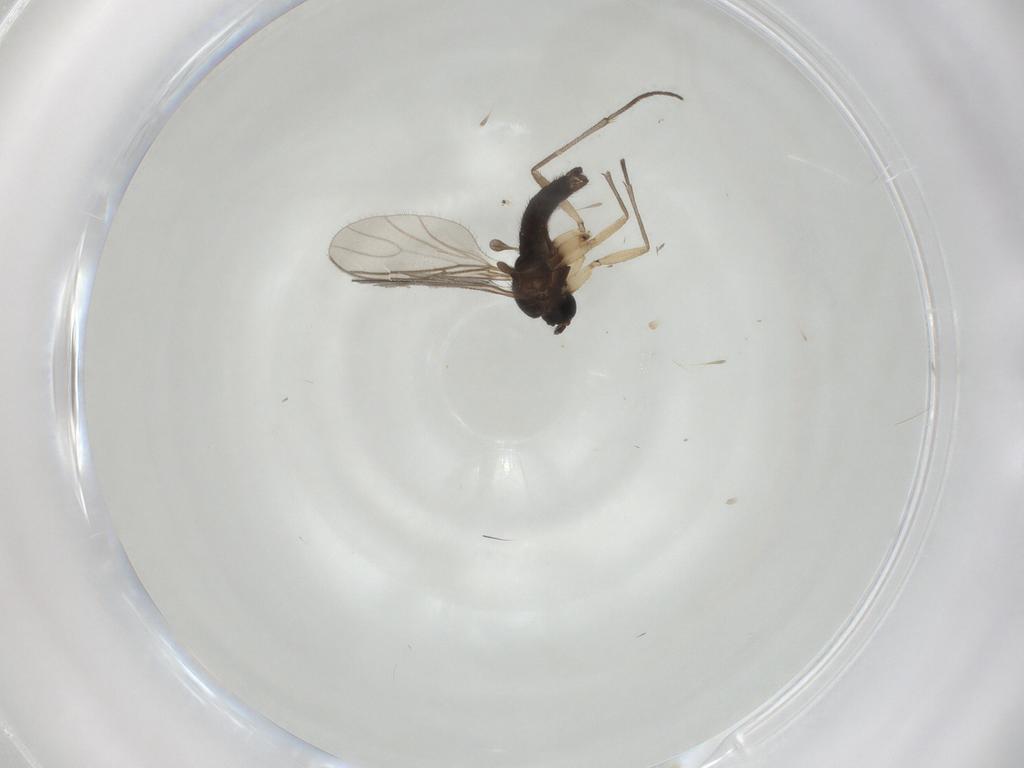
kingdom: Animalia
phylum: Arthropoda
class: Insecta
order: Diptera
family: Sciaridae
